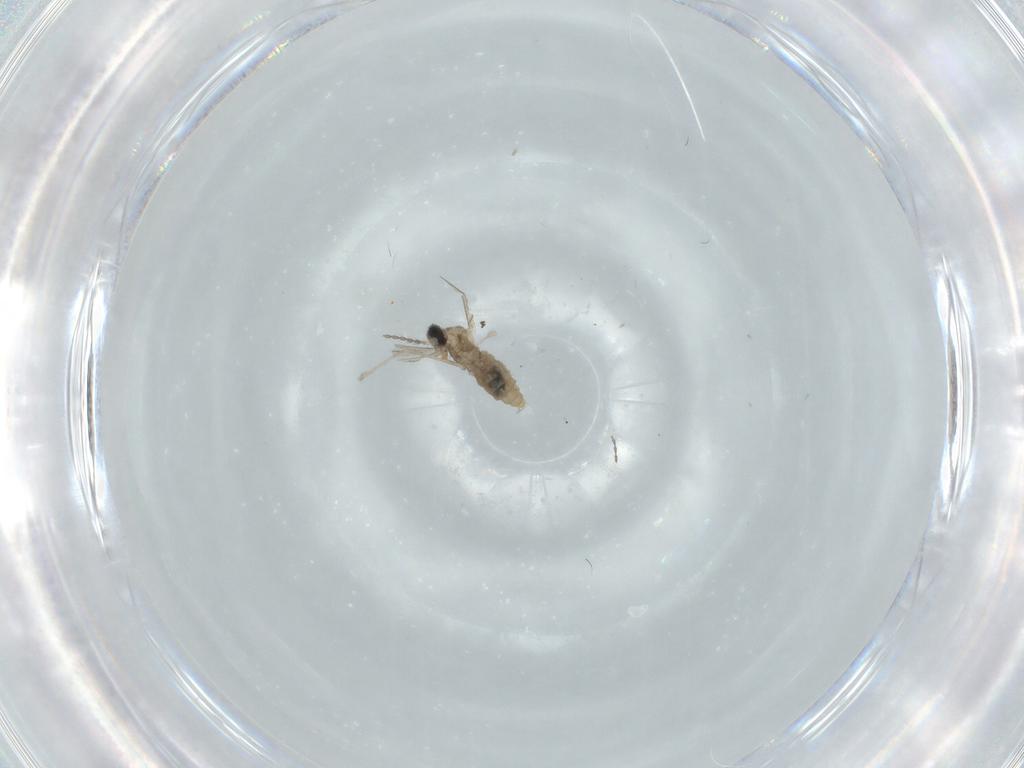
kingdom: Animalia
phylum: Arthropoda
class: Insecta
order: Diptera
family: Cecidomyiidae
